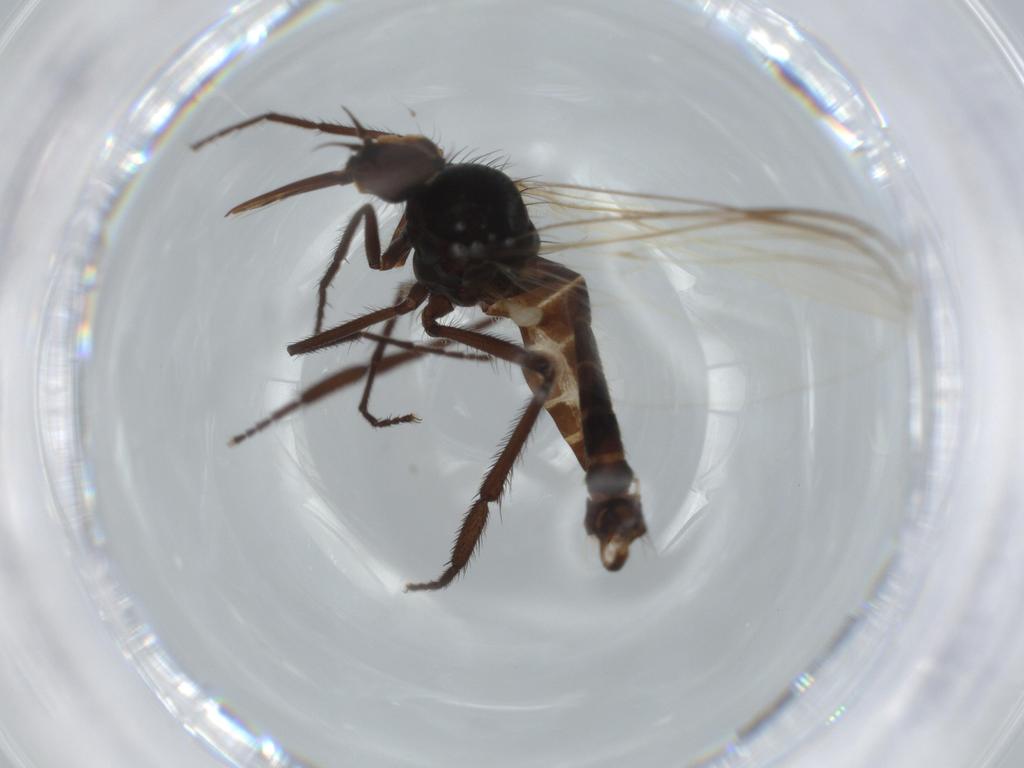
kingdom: Animalia
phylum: Arthropoda
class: Insecta
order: Diptera
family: Empididae
